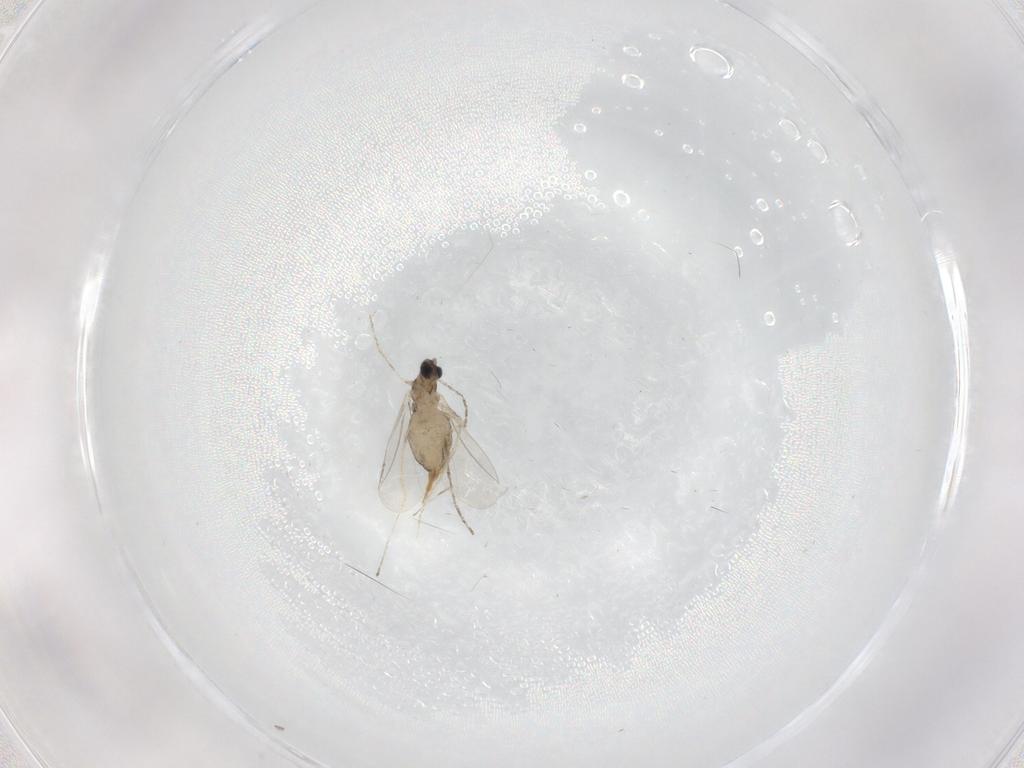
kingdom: Animalia
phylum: Arthropoda
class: Insecta
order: Diptera
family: Cecidomyiidae
